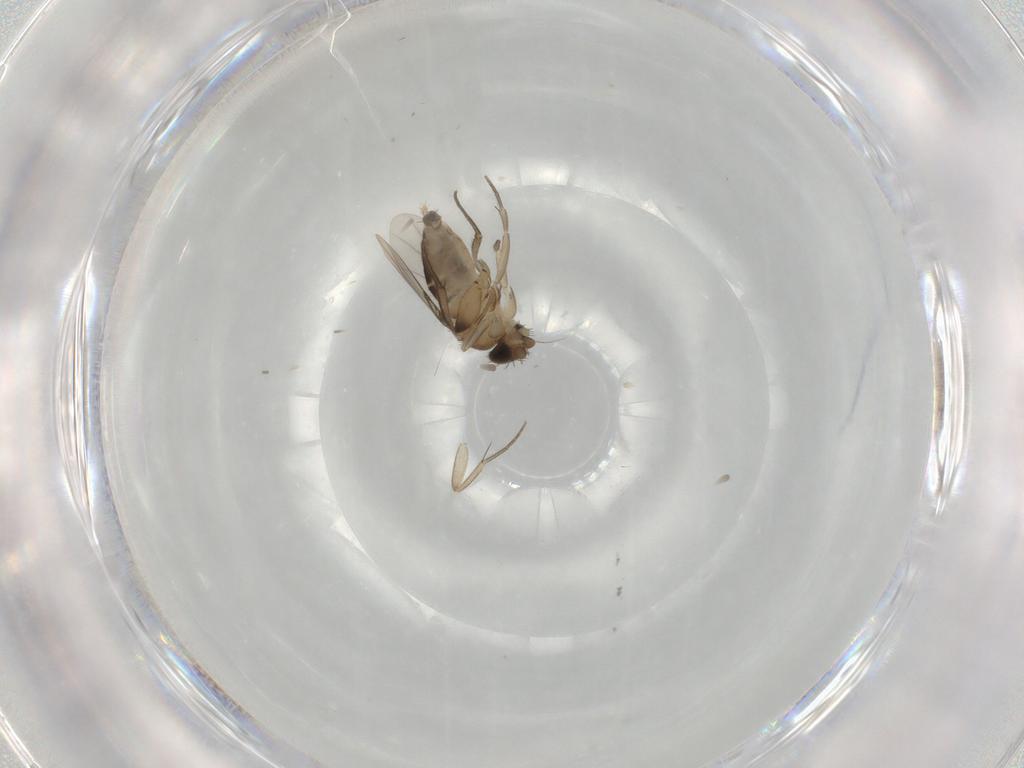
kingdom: Animalia
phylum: Arthropoda
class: Insecta
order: Diptera
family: Phoridae
